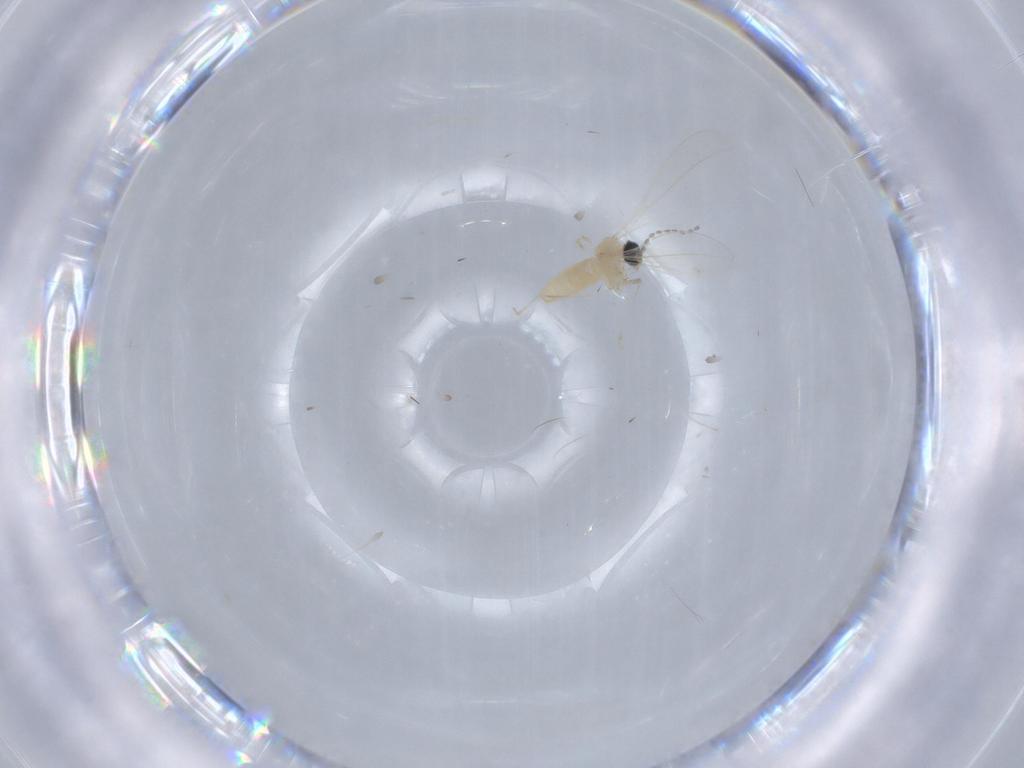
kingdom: Animalia
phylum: Arthropoda
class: Insecta
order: Diptera
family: Cecidomyiidae
